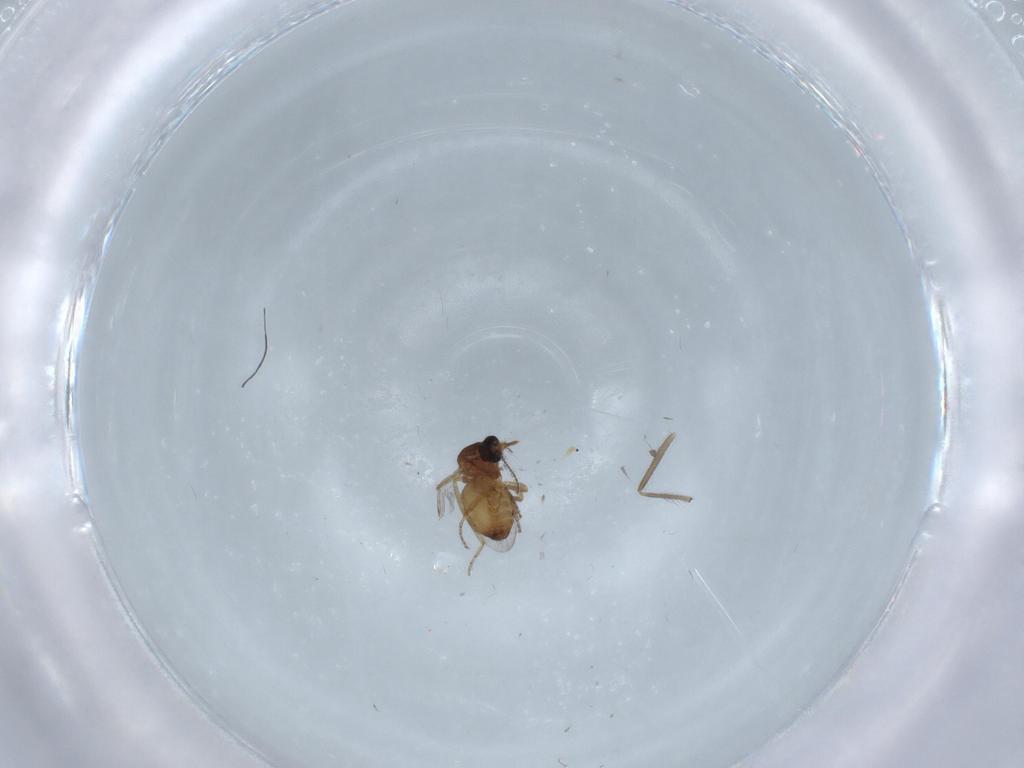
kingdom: Animalia
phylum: Arthropoda
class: Insecta
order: Diptera
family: Ceratopogonidae
